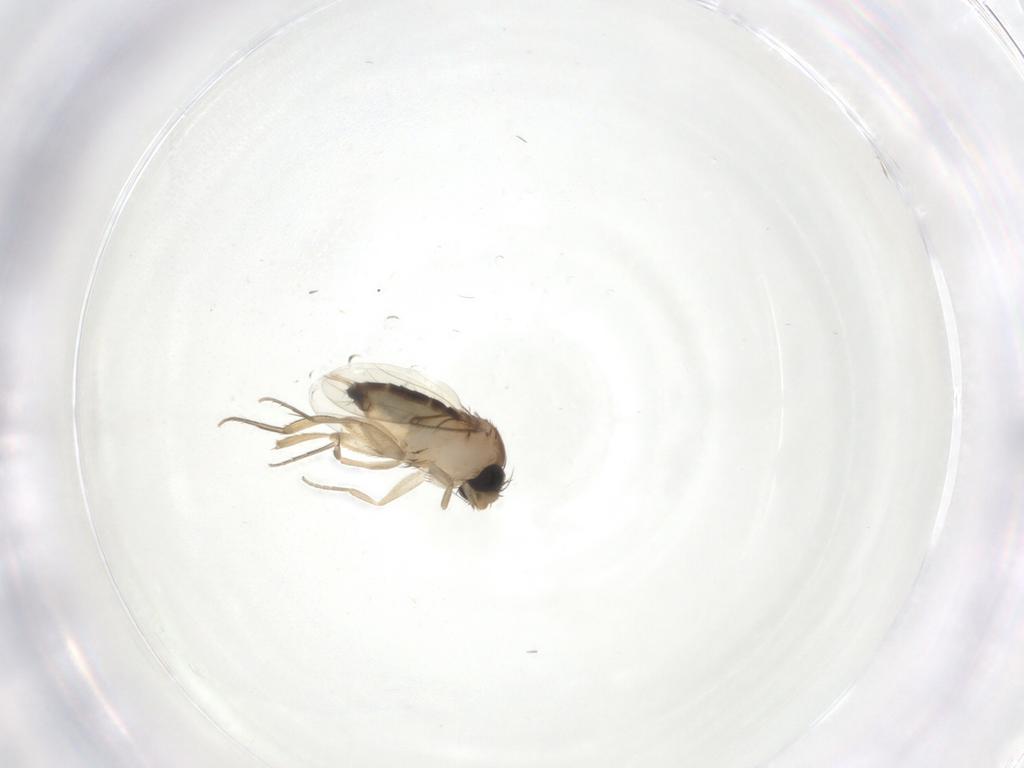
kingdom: Animalia
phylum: Arthropoda
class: Insecta
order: Diptera
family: Phoridae
